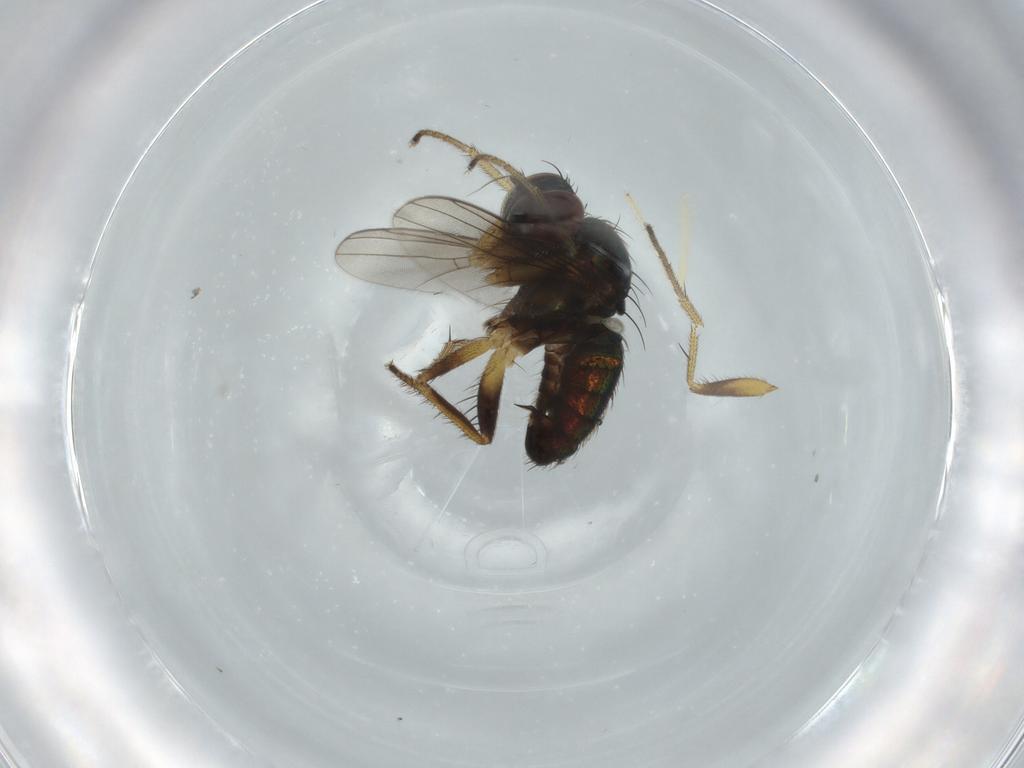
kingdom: Animalia
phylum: Arthropoda
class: Insecta
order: Diptera
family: Dolichopodidae
